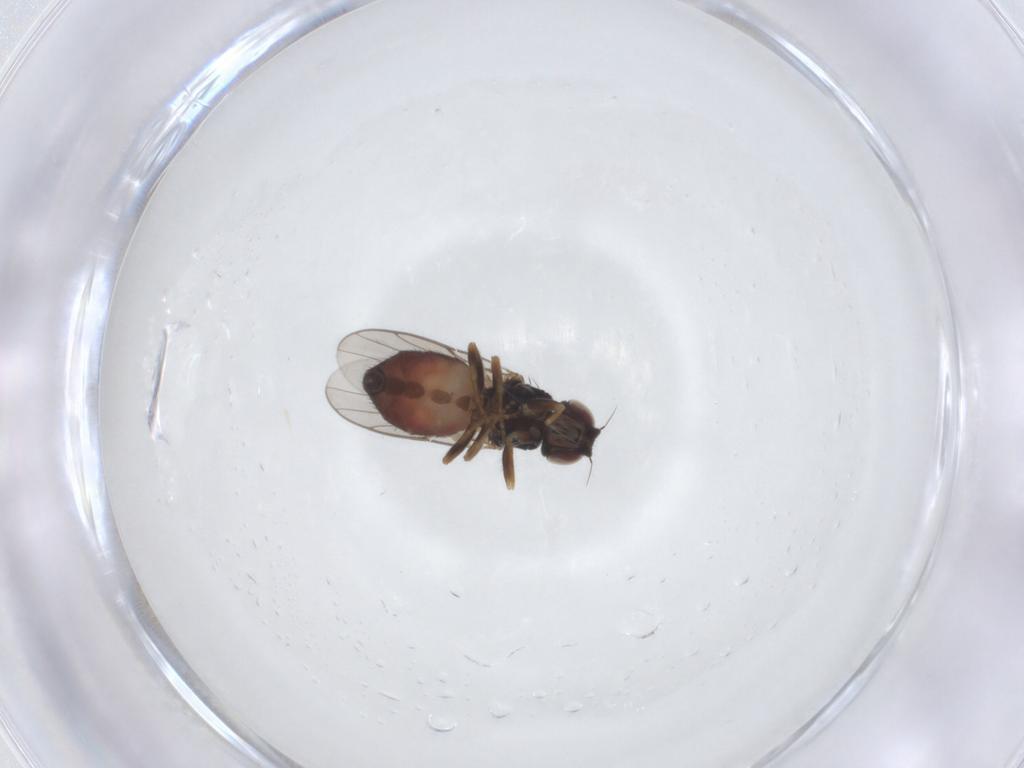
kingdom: Animalia
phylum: Arthropoda
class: Insecta
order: Diptera
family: Chloropidae
